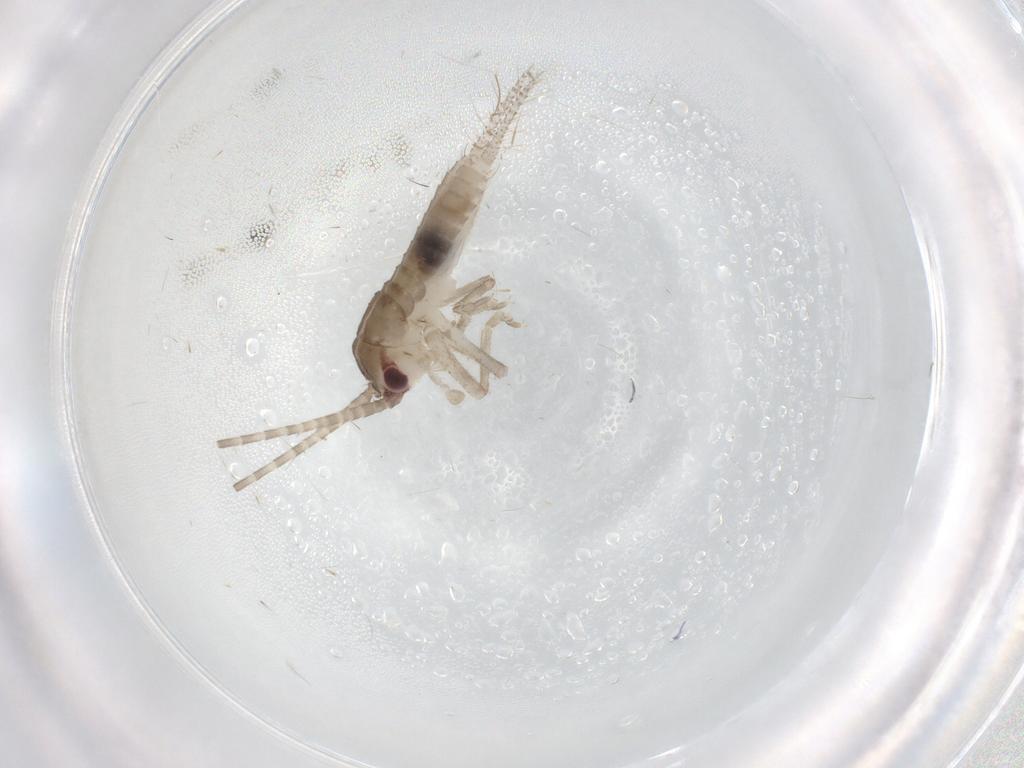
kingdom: Animalia
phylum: Arthropoda
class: Insecta
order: Orthoptera
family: Gryllidae
